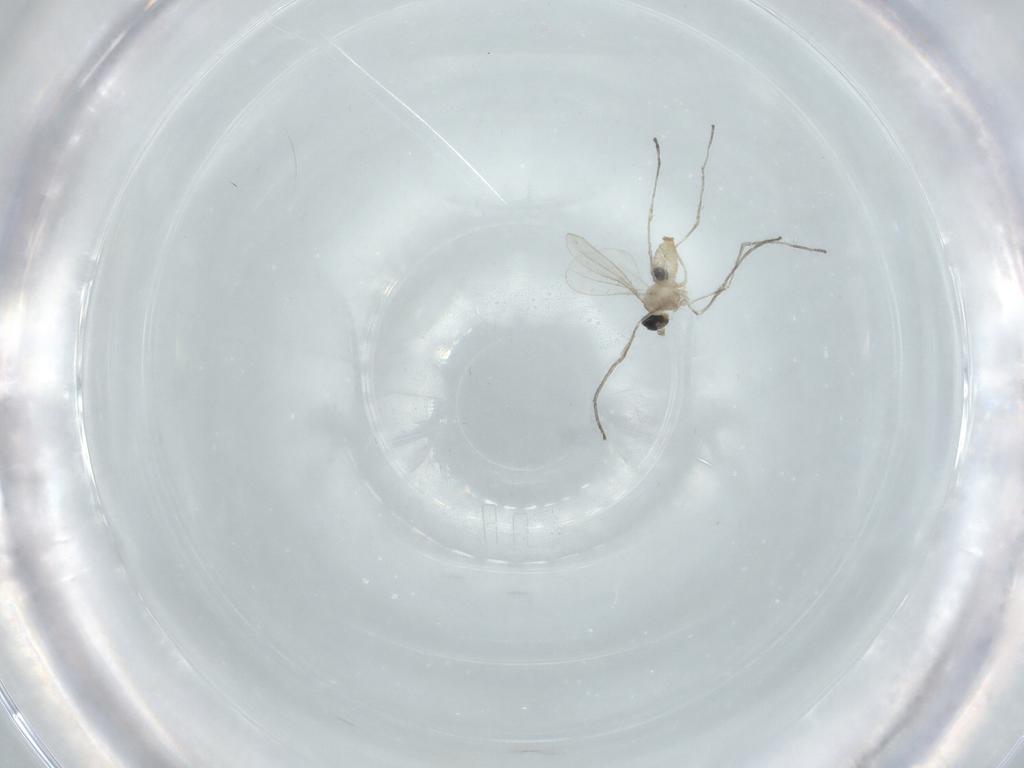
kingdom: Animalia
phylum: Arthropoda
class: Insecta
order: Diptera
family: Cecidomyiidae
